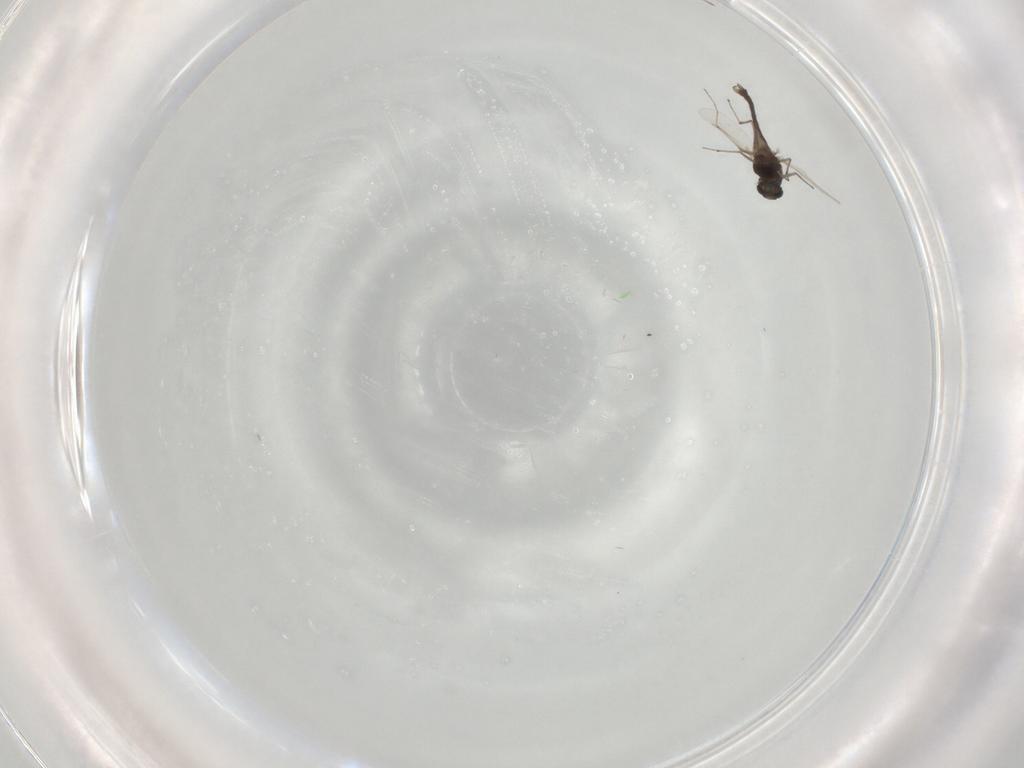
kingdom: Animalia
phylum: Arthropoda
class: Insecta
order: Diptera
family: Chironomidae
